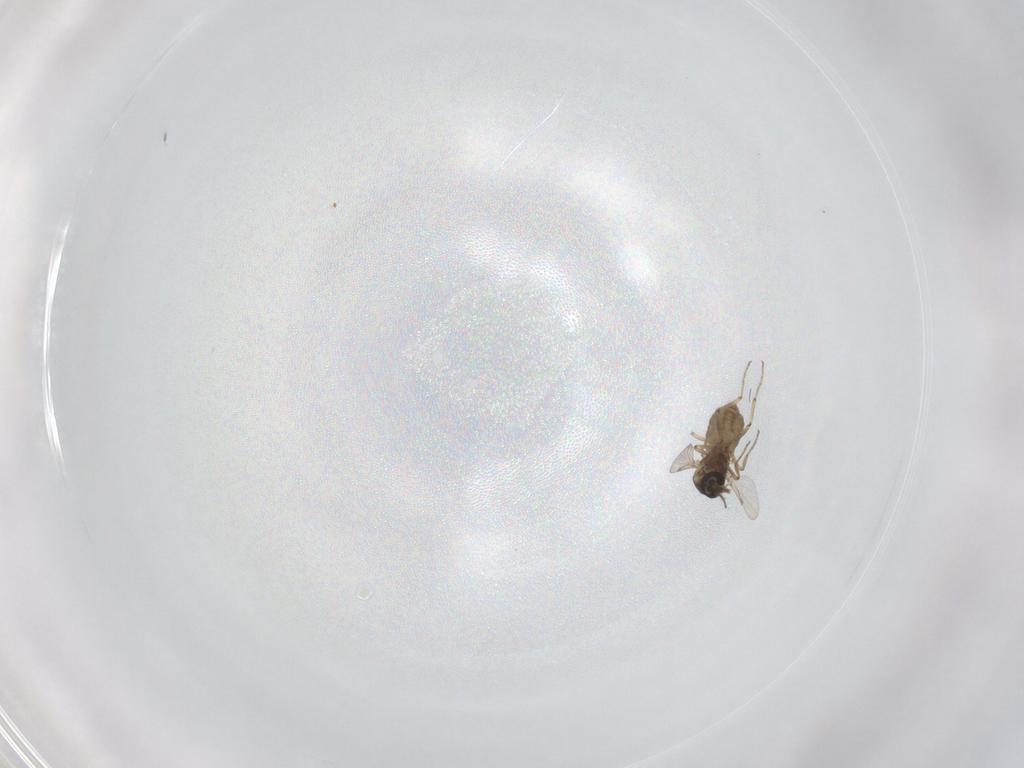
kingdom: Animalia
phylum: Arthropoda
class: Insecta
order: Diptera
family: Ceratopogonidae
